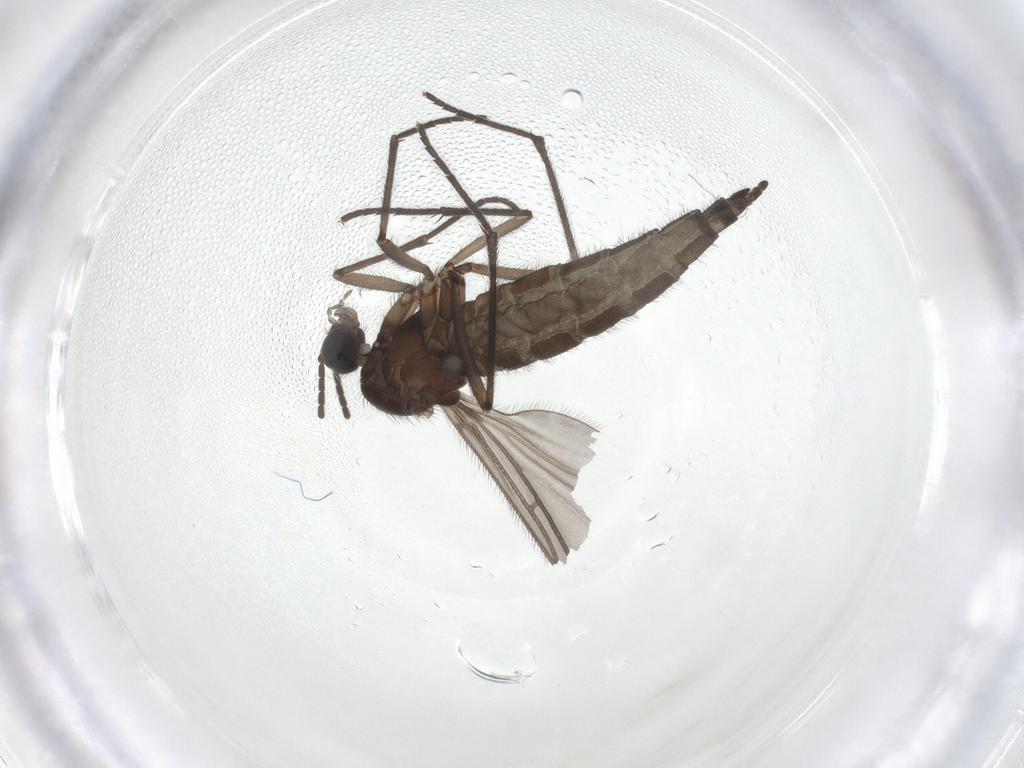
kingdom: Animalia
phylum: Arthropoda
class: Insecta
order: Diptera
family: Sciaridae
